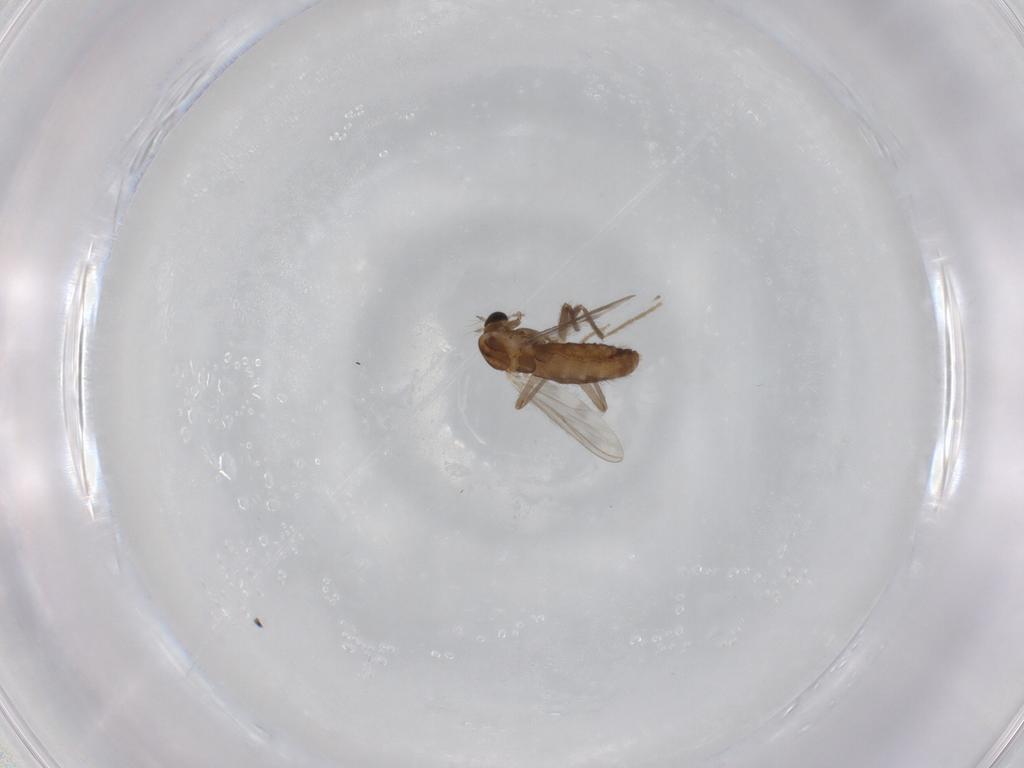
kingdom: Animalia
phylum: Arthropoda
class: Insecta
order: Diptera
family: Chironomidae
